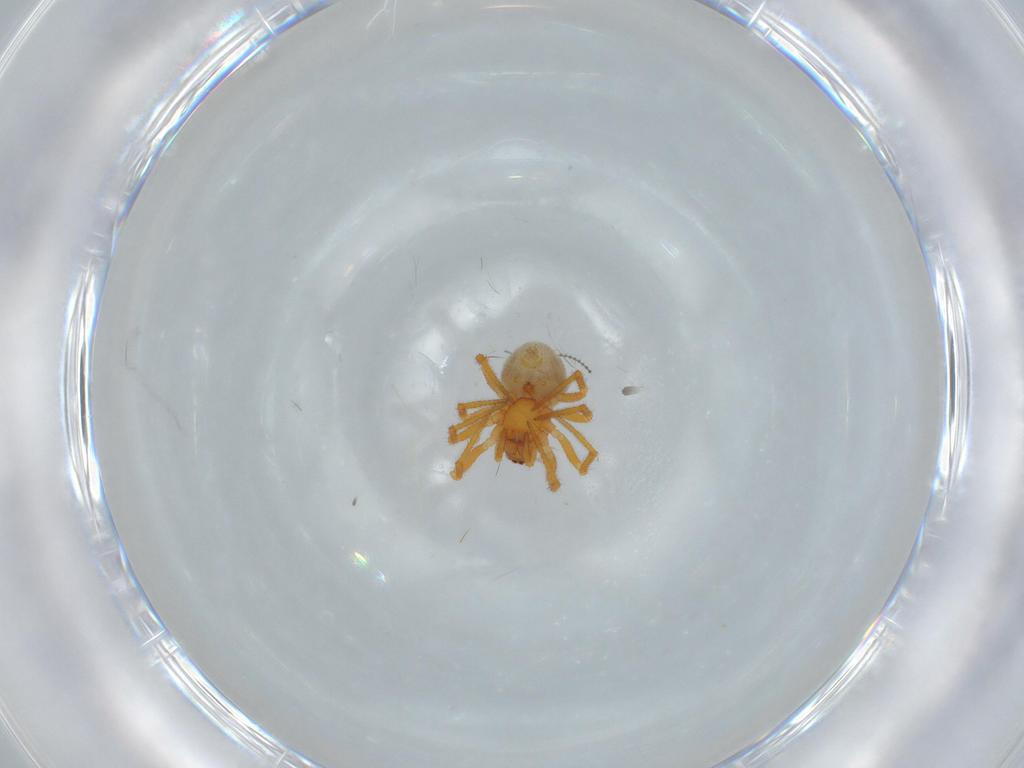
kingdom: Animalia
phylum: Arthropoda
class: Arachnida
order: Araneae
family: Theridiidae
